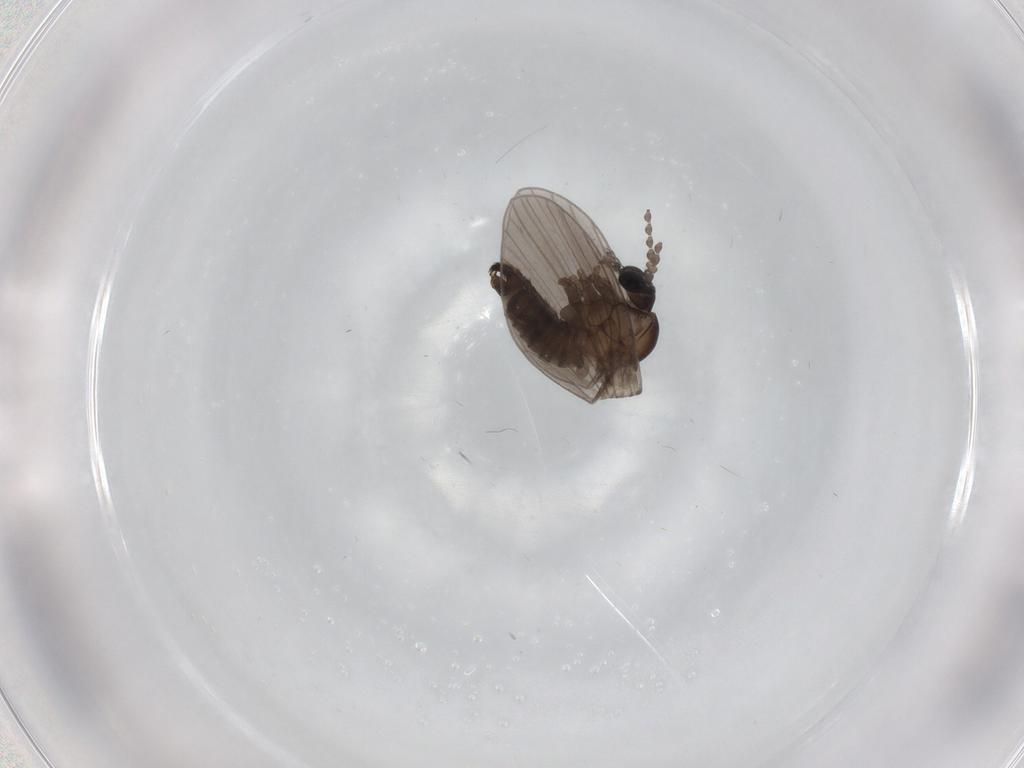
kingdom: Animalia
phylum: Arthropoda
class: Insecta
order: Diptera
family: Psychodidae
